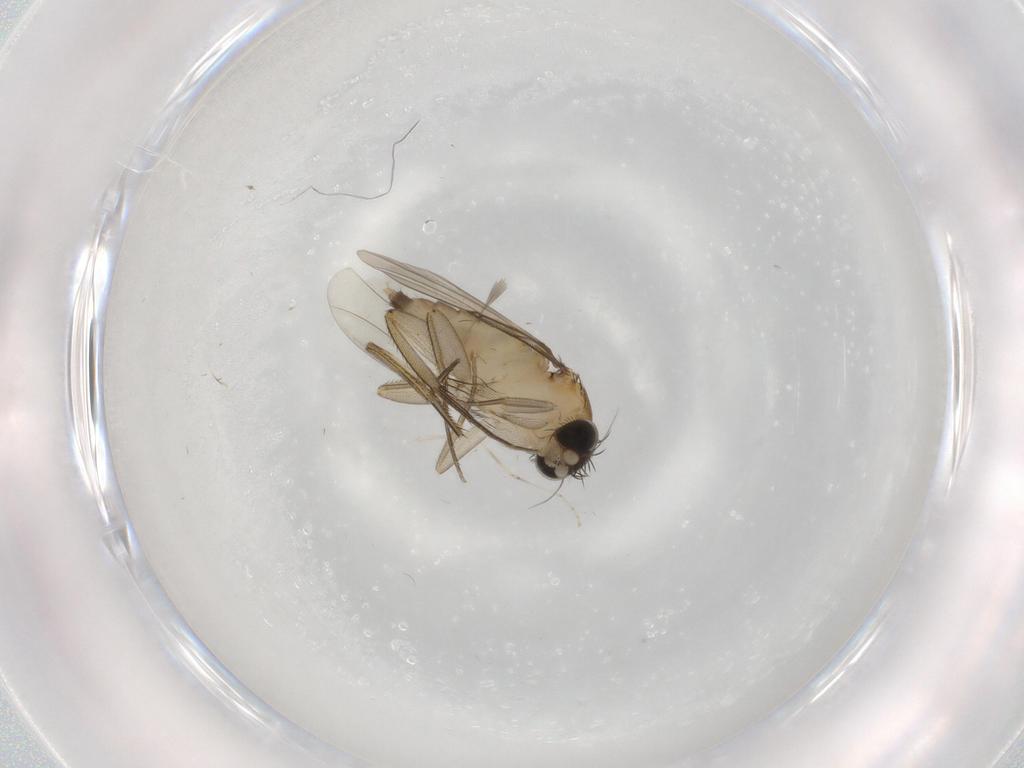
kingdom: Animalia
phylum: Arthropoda
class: Insecta
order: Diptera
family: Phoridae
